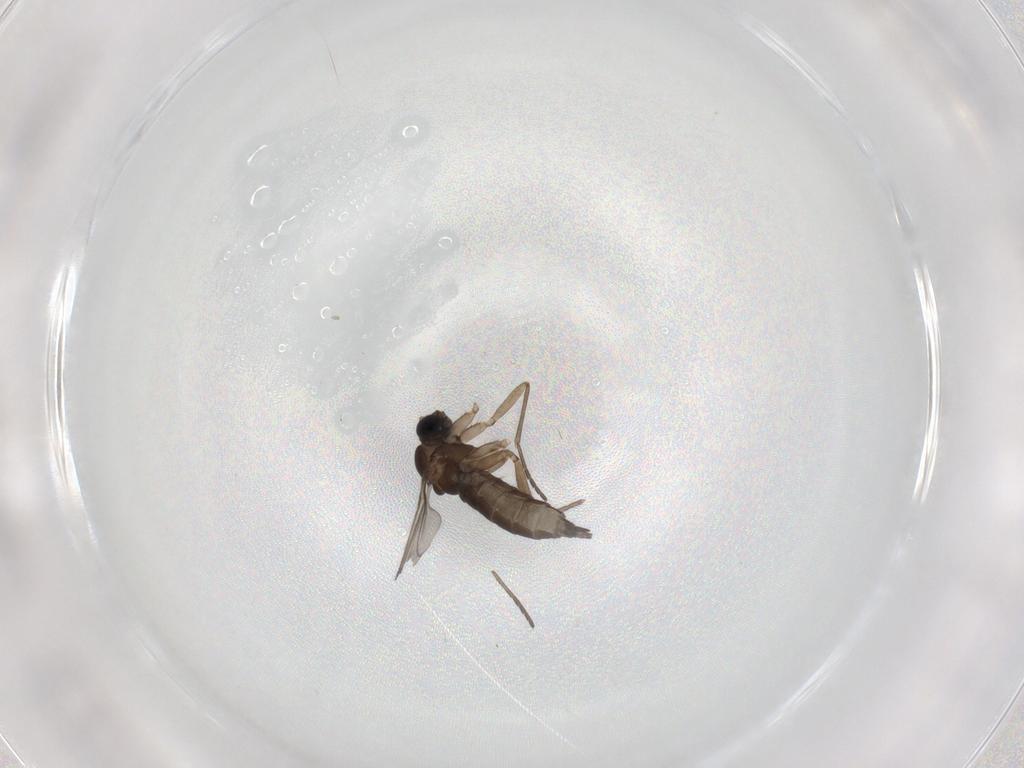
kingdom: Animalia
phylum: Arthropoda
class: Insecta
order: Diptera
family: Sciaridae
